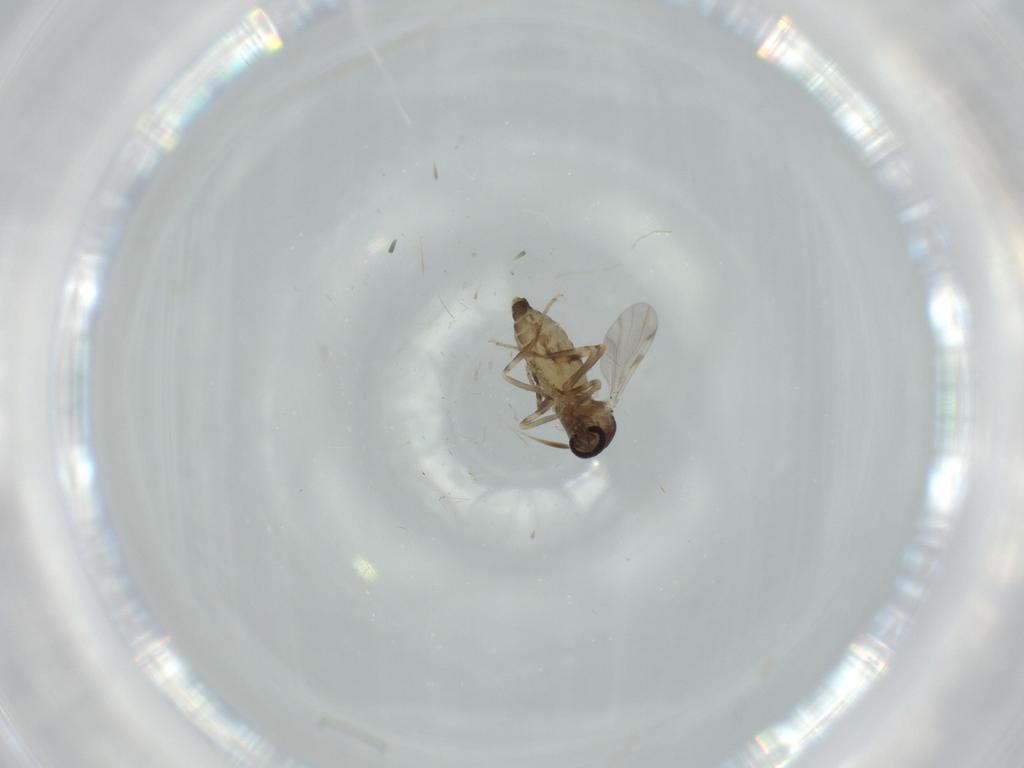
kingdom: Animalia
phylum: Arthropoda
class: Insecta
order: Diptera
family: Ceratopogonidae
